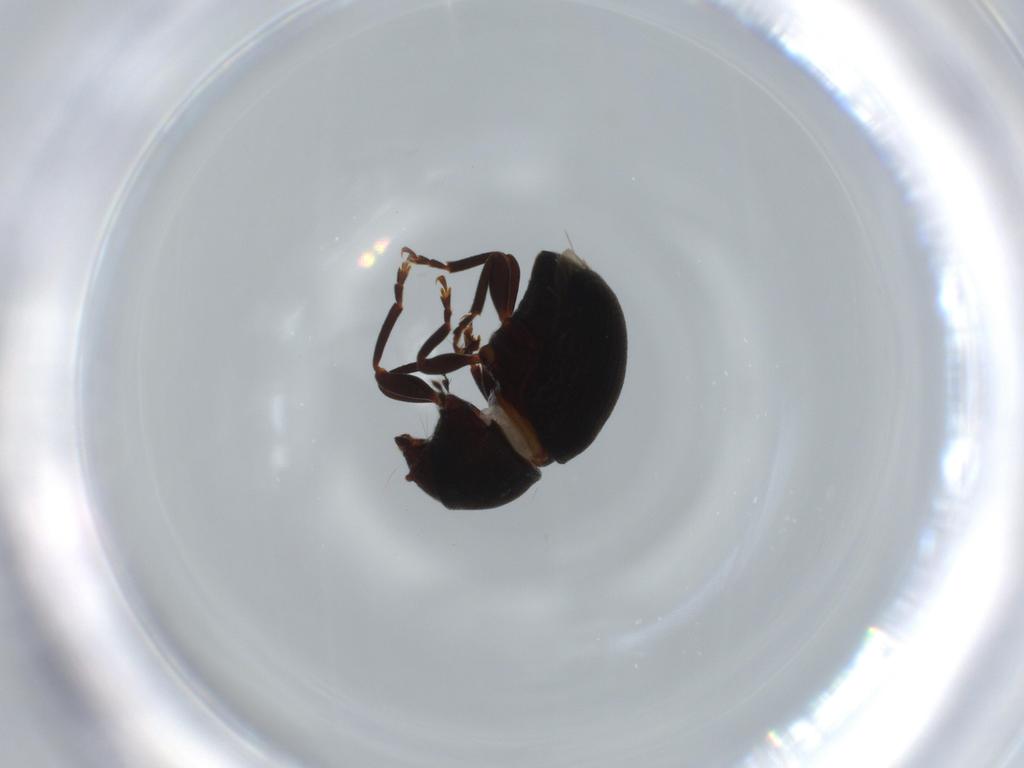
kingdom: Animalia
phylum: Arthropoda
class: Insecta
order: Coleoptera
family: Anthribidae
